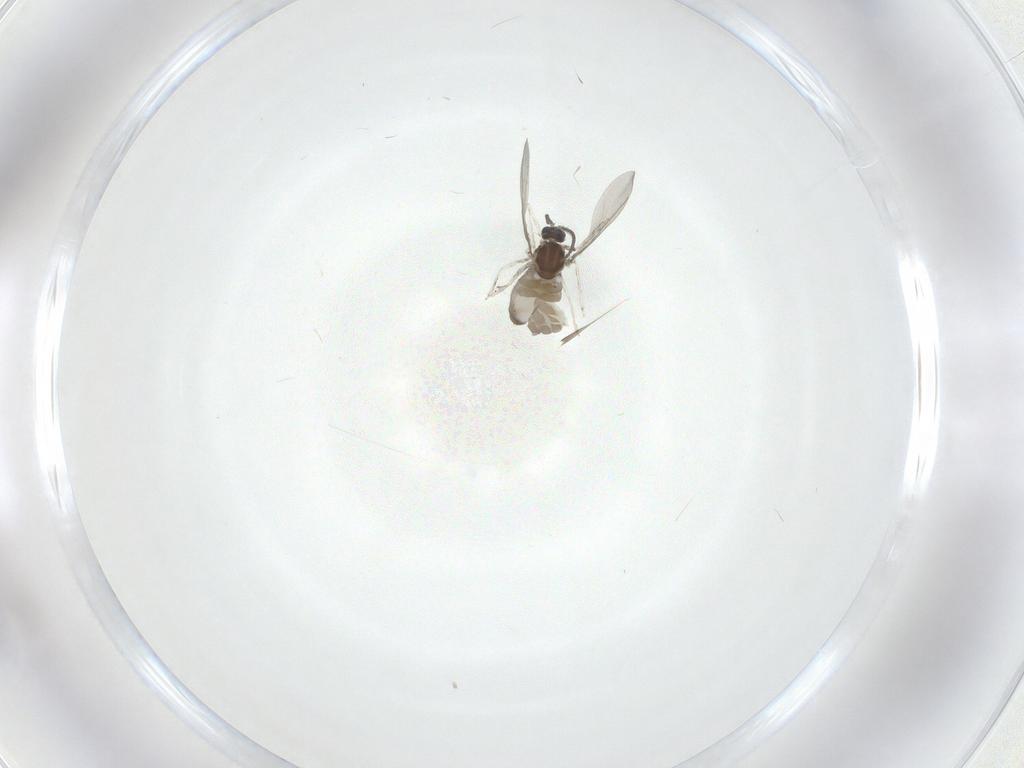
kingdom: Animalia
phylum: Arthropoda
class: Insecta
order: Diptera
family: Cecidomyiidae
